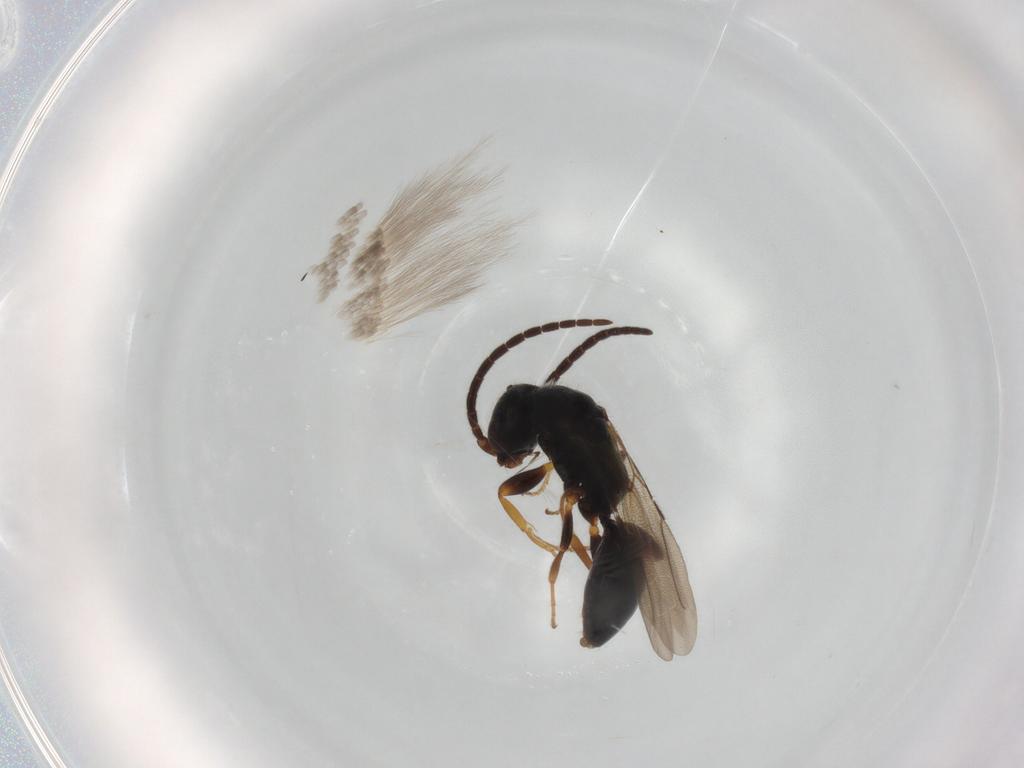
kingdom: Animalia
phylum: Arthropoda
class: Insecta
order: Hymenoptera
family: Bethylidae
